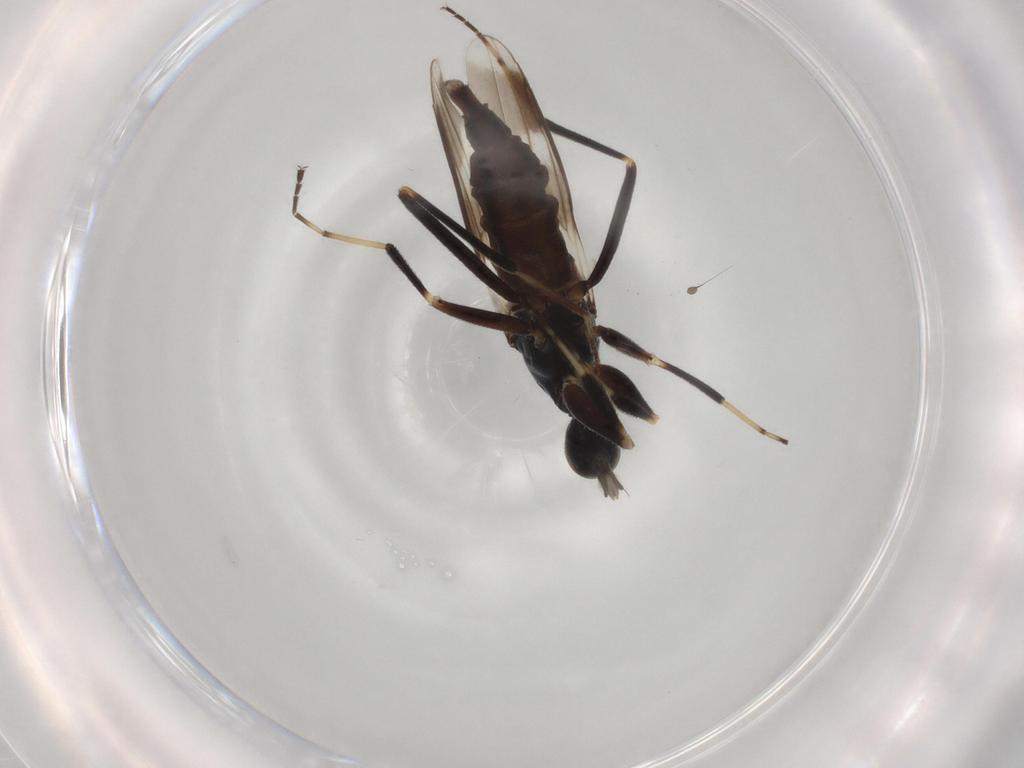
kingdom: Animalia
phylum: Arthropoda
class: Insecta
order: Diptera
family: Hybotidae
